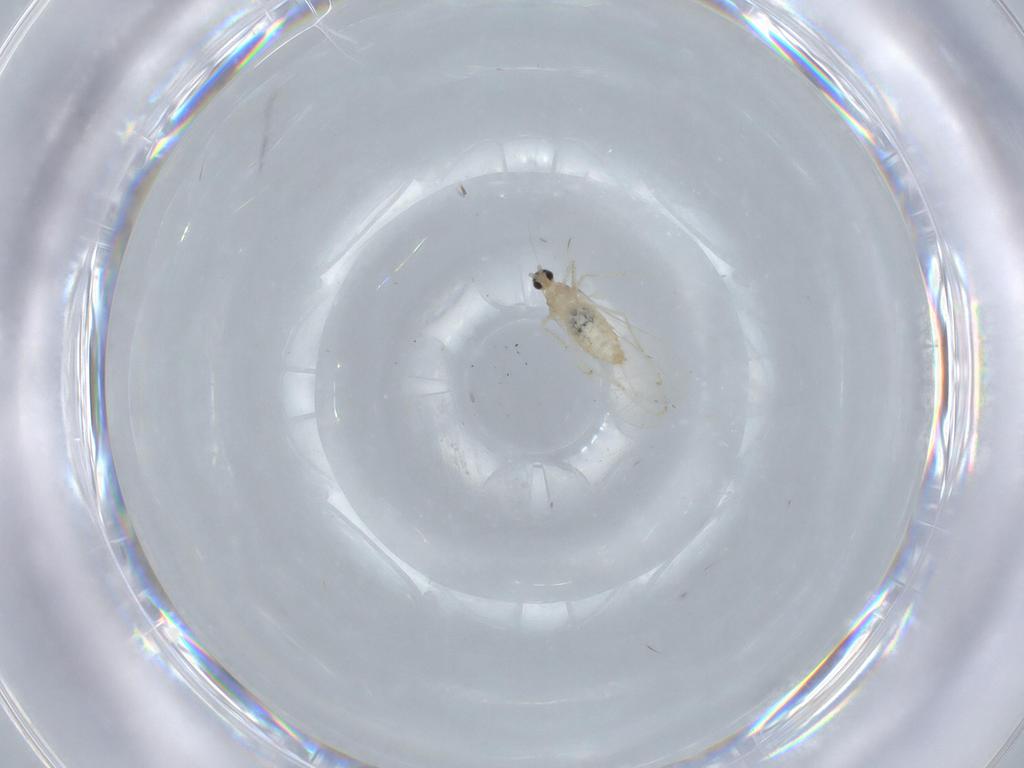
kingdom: Animalia
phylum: Arthropoda
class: Insecta
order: Diptera
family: Cecidomyiidae
